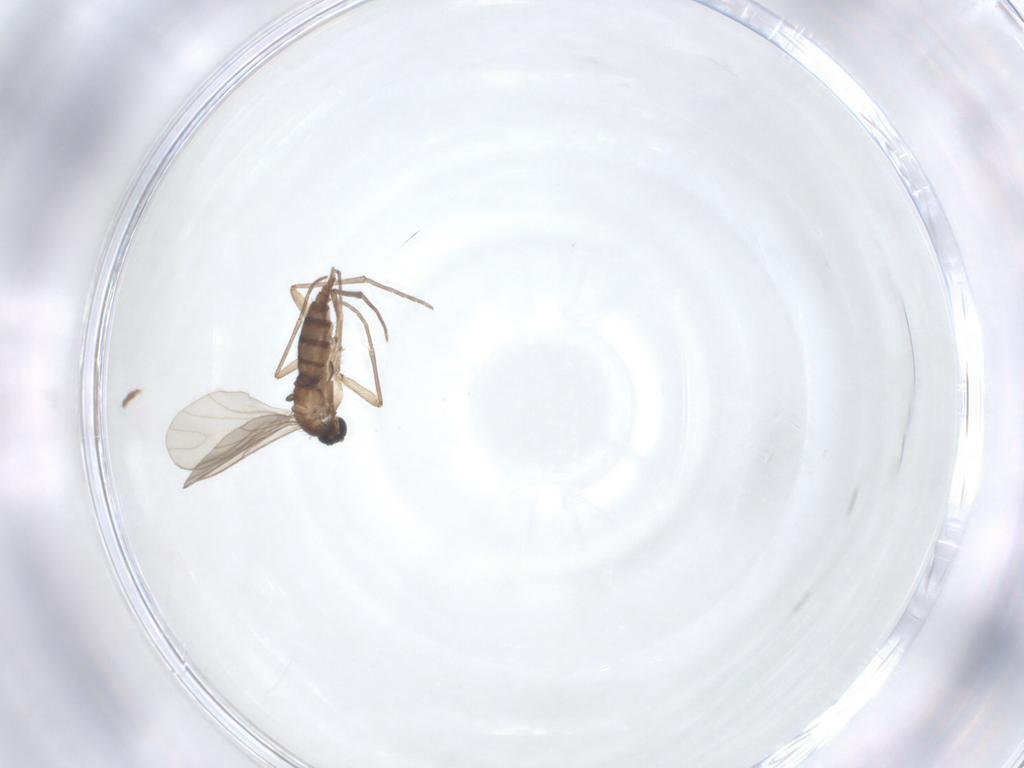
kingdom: Animalia
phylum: Arthropoda
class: Insecta
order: Diptera
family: Sciaridae
